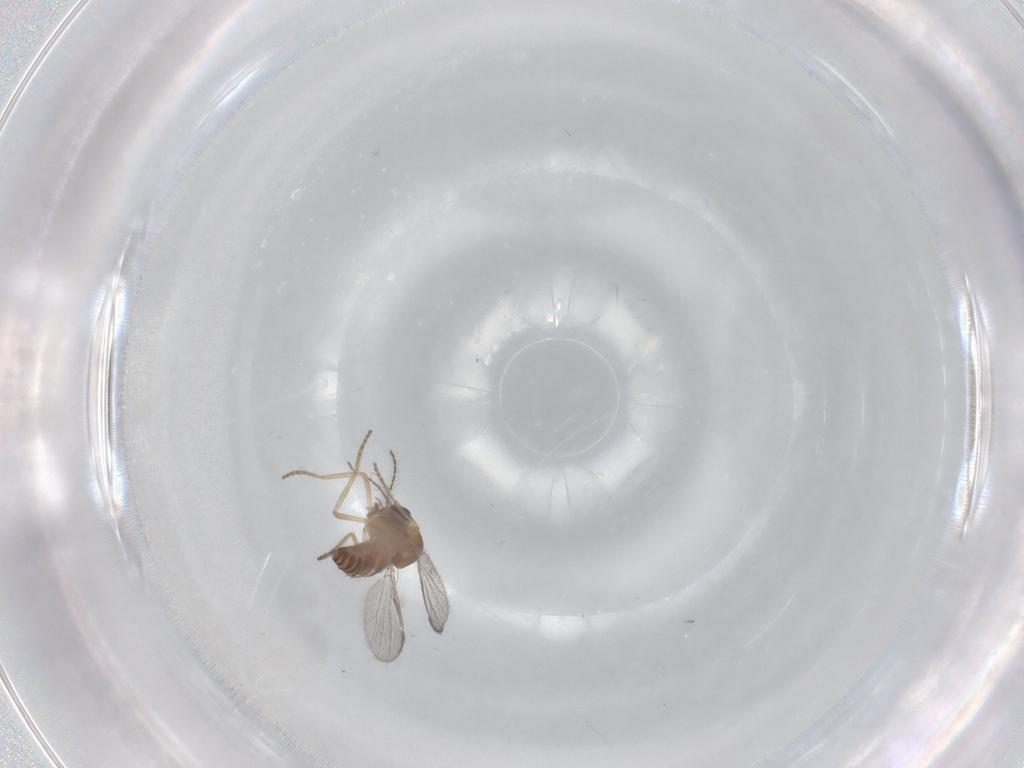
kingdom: Animalia
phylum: Arthropoda
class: Insecta
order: Diptera
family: Ceratopogonidae
